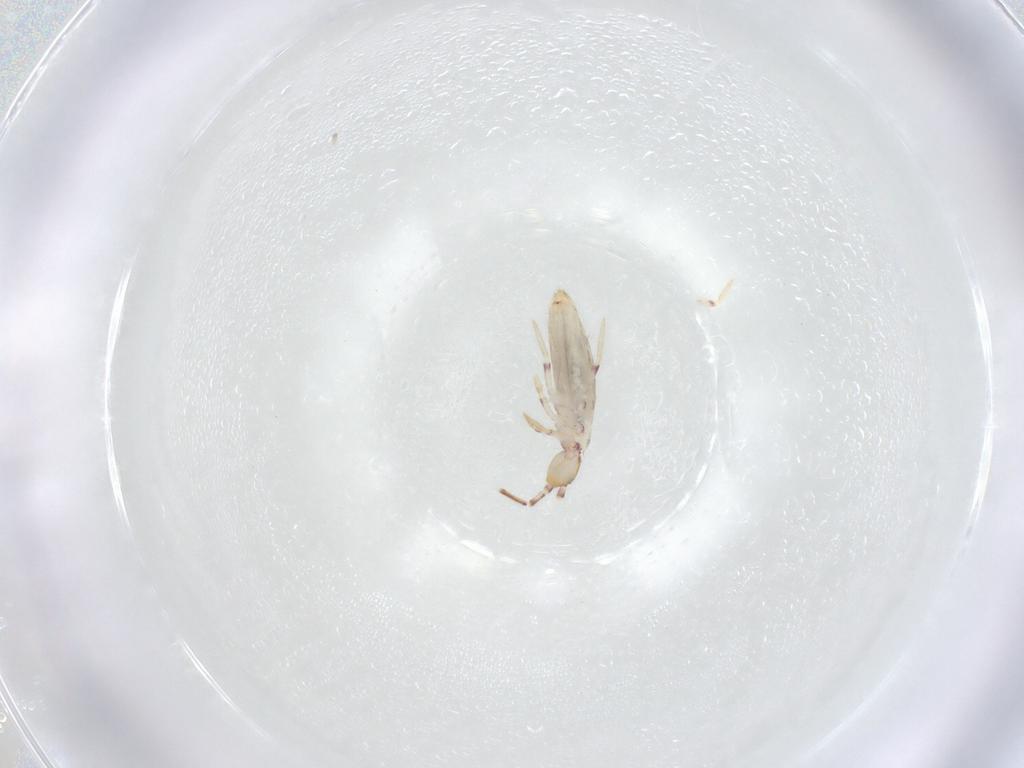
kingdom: Animalia
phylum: Arthropoda
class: Collembola
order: Entomobryomorpha
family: Entomobryidae
